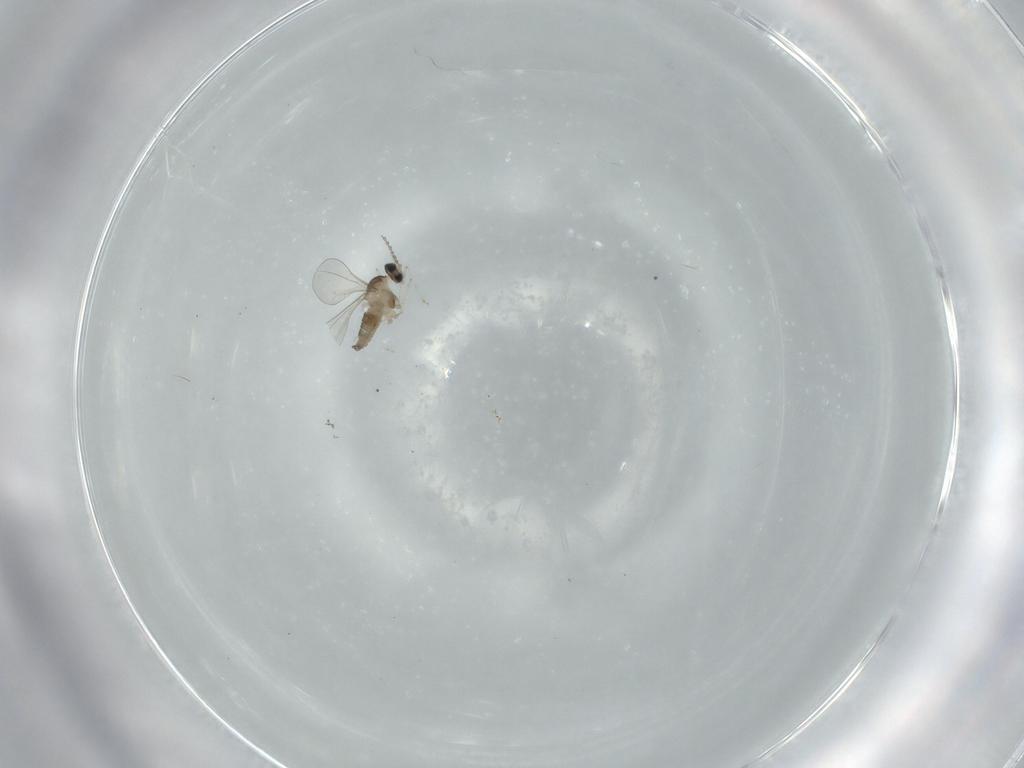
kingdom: Animalia
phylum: Arthropoda
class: Insecta
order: Diptera
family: Cecidomyiidae
